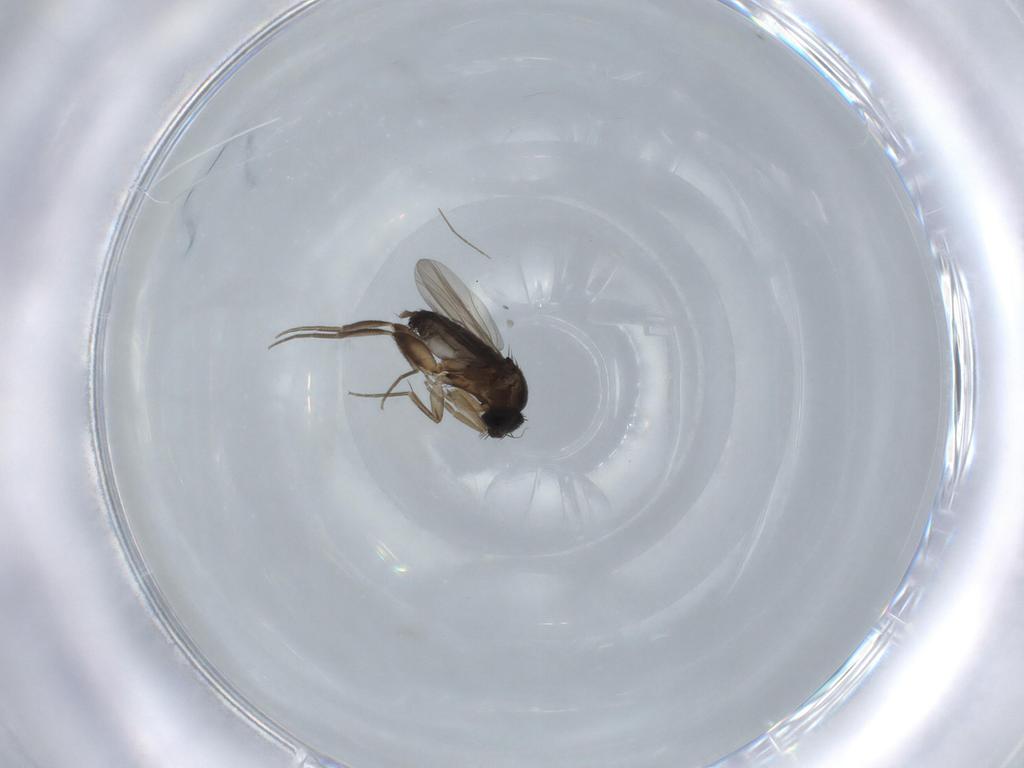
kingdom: Animalia
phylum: Arthropoda
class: Insecta
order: Diptera
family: Phoridae
